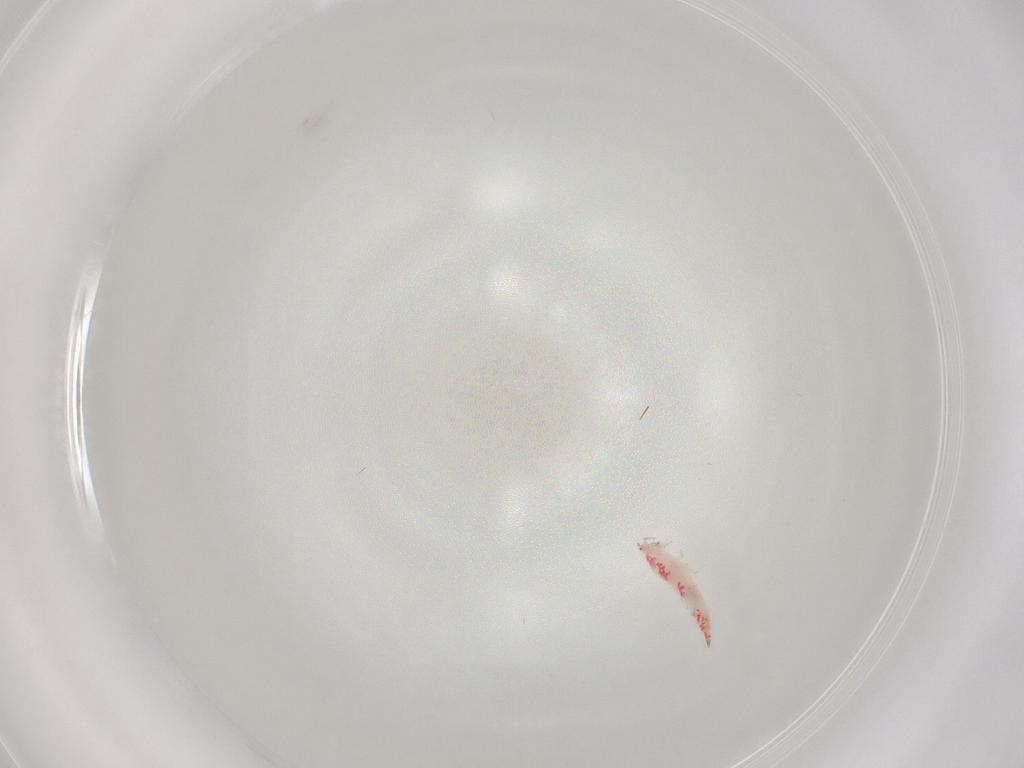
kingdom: Animalia
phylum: Arthropoda
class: Insecta
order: Thysanoptera
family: Phlaeothripidae
